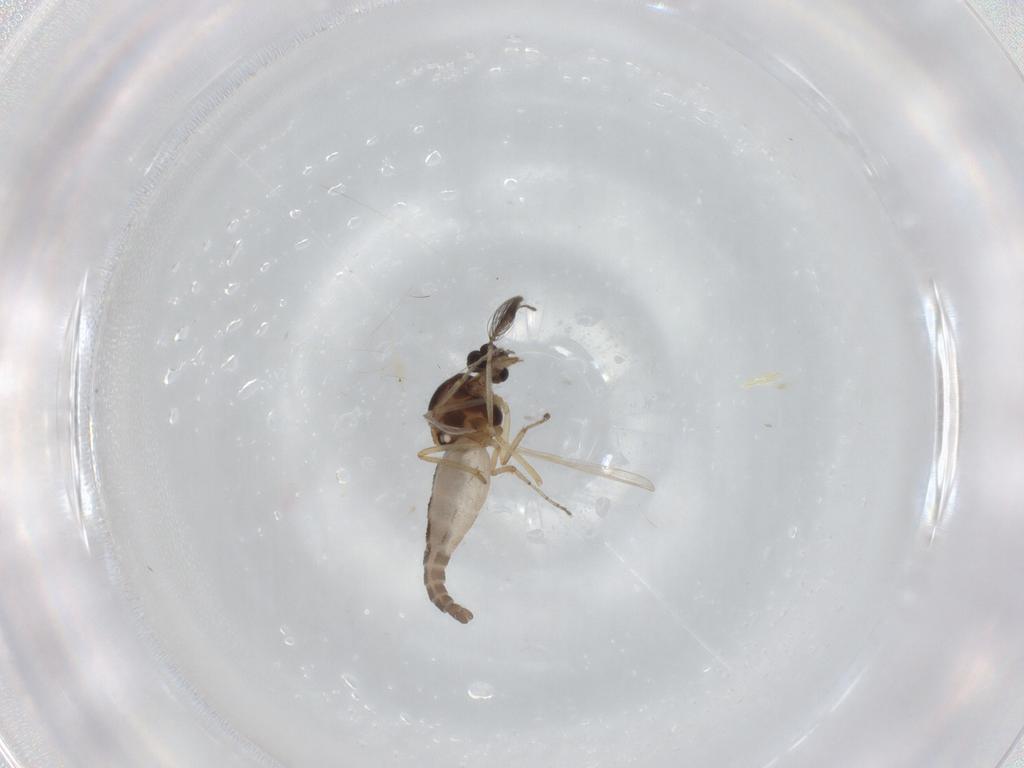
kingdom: Animalia
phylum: Arthropoda
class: Insecta
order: Diptera
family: Ceratopogonidae
